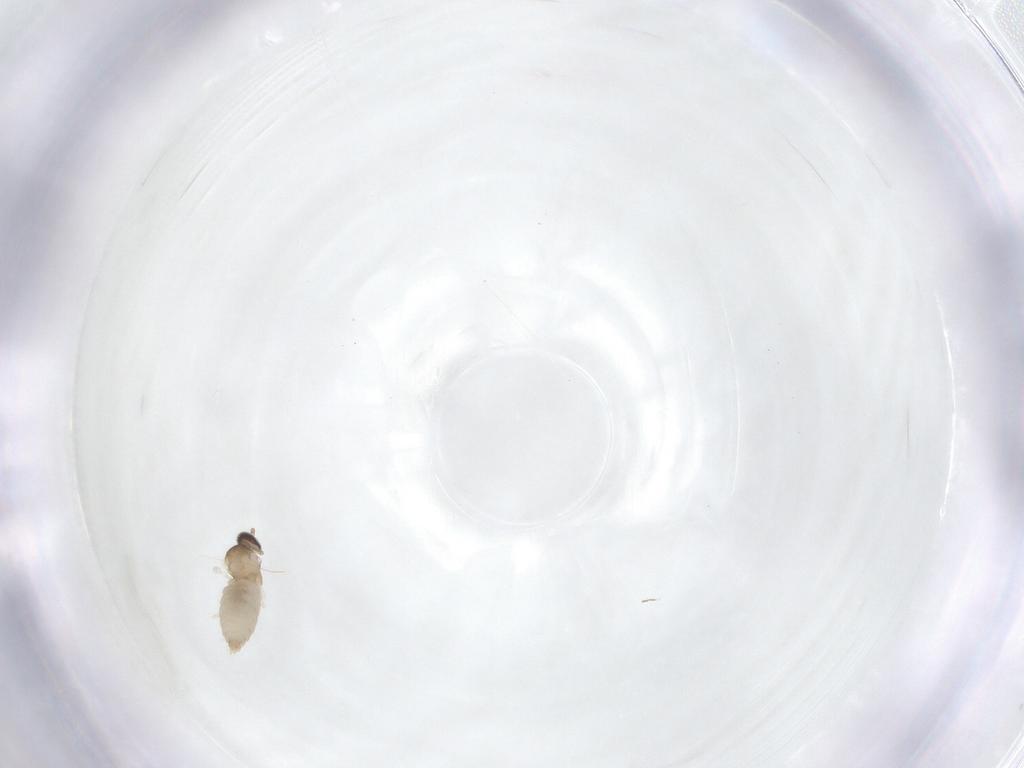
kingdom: Animalia
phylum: Arthropoda
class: Insecta
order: Diptera
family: Cecidomyiidae
